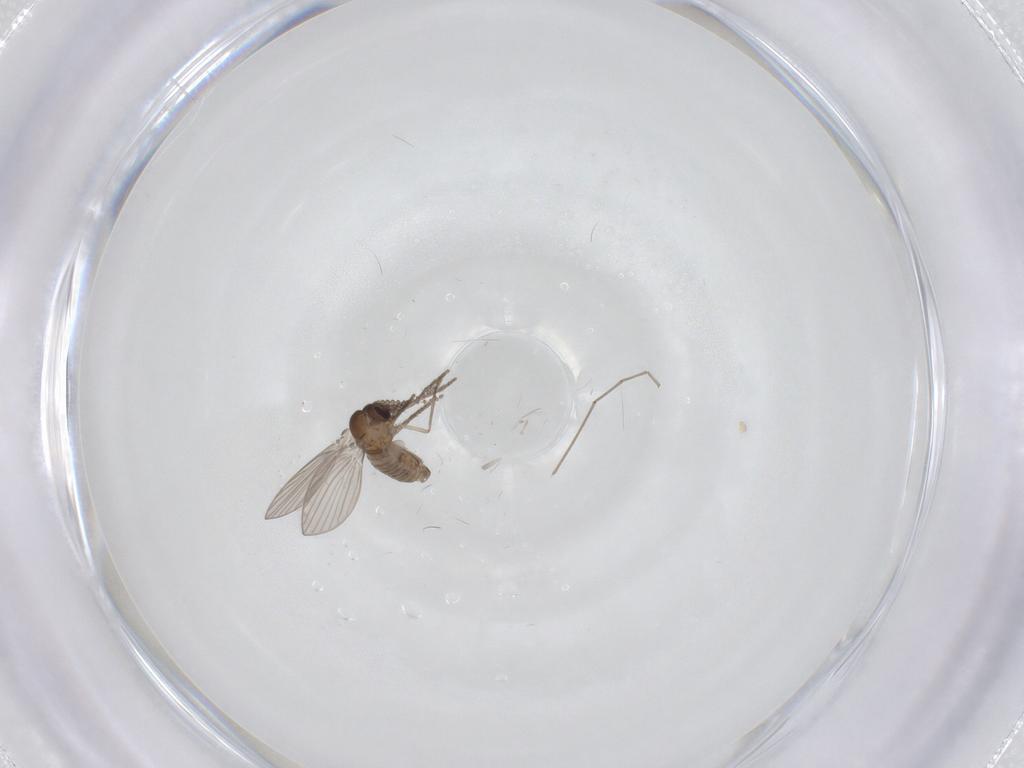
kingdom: Animalia
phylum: Arthropoda
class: Insecta
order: Diptera
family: Psychodidae
